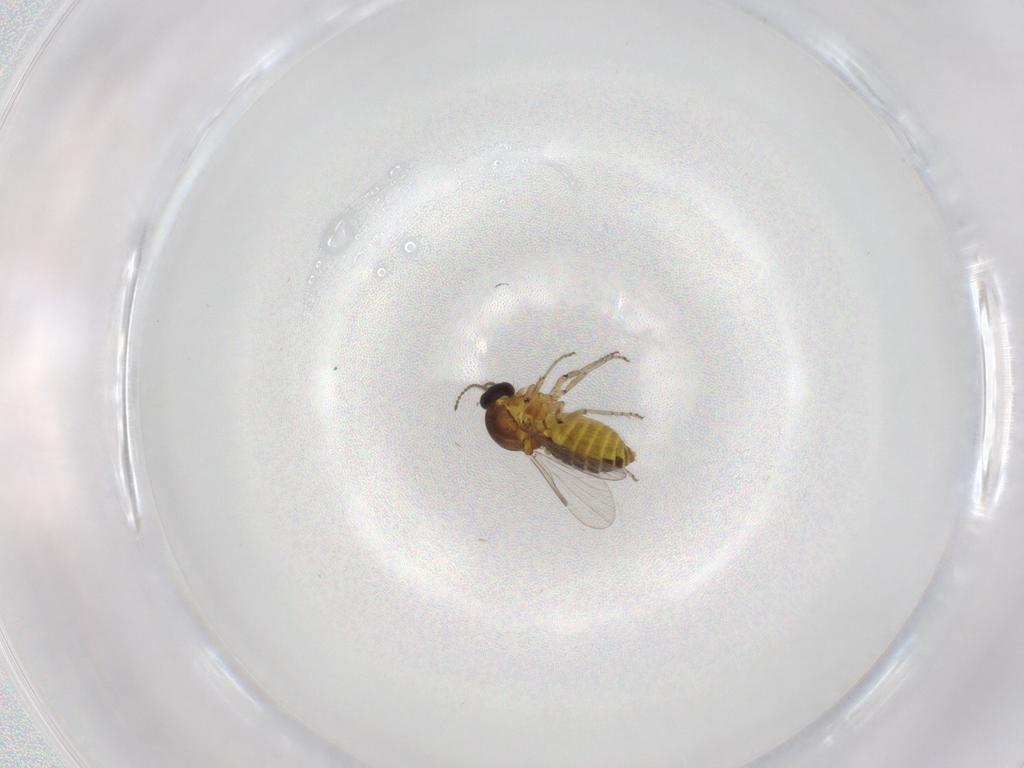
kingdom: Animalia
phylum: Arthropoda
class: Insecta
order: Diptera
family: Ceratopogonidae
